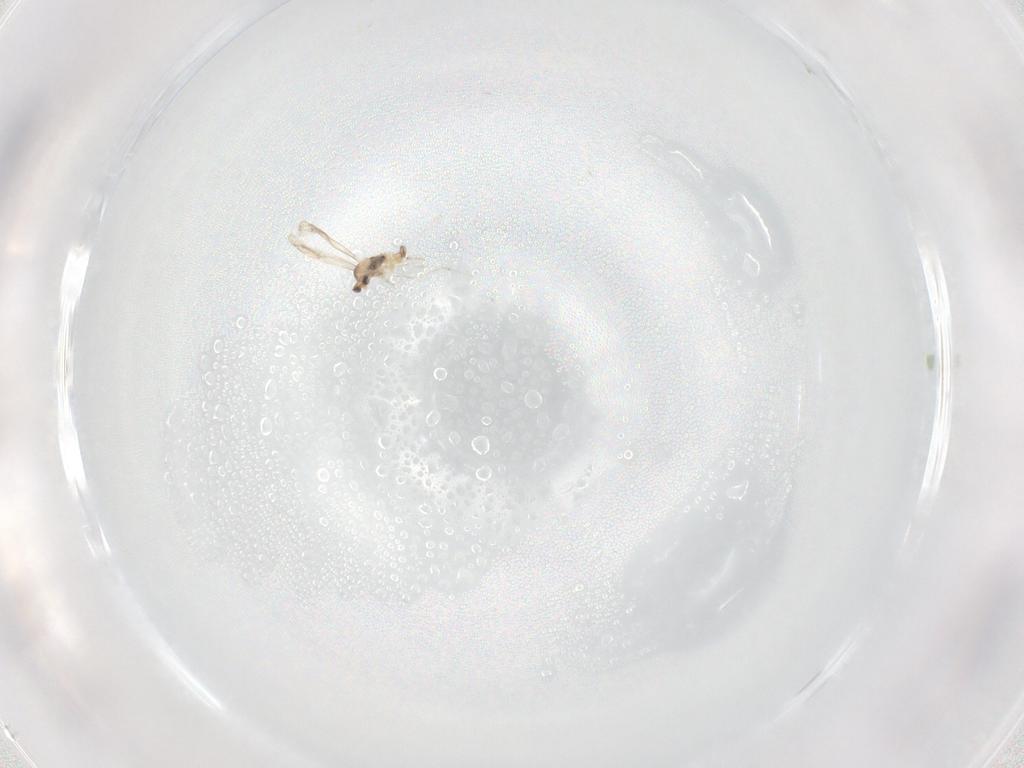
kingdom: Animalia
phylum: Arthropoda
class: Insecta
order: Diptera
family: Cecidomyiidae
